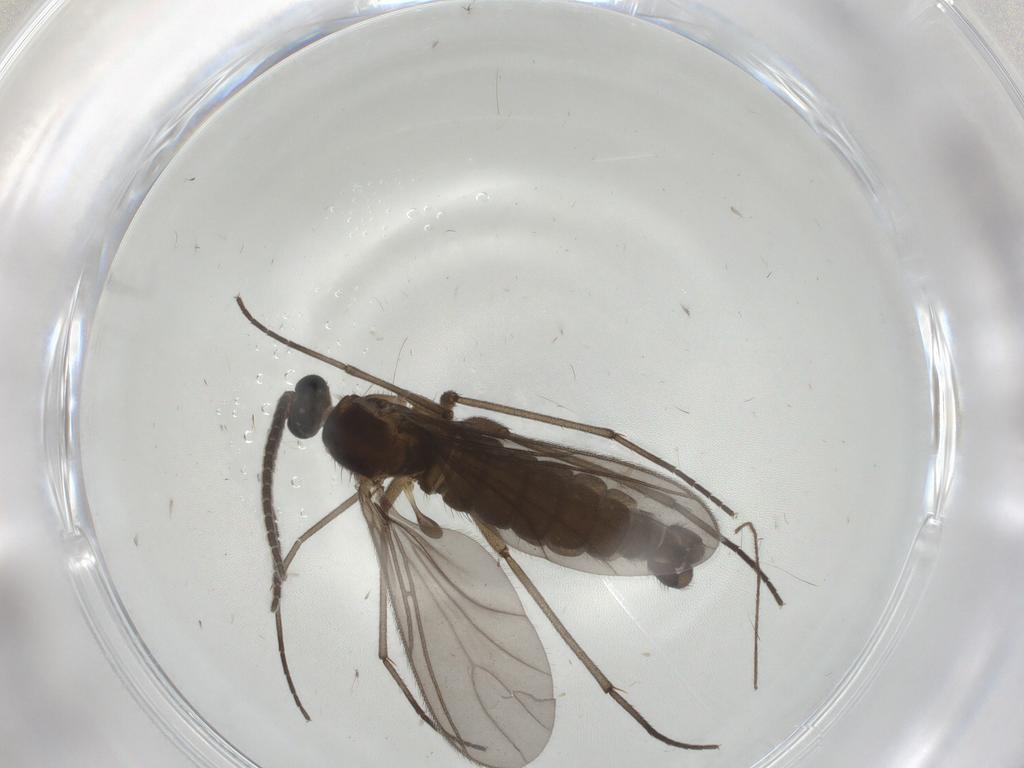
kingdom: Animalia
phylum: Arthropoda
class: Insecta
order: Diptera
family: Sciaridae
